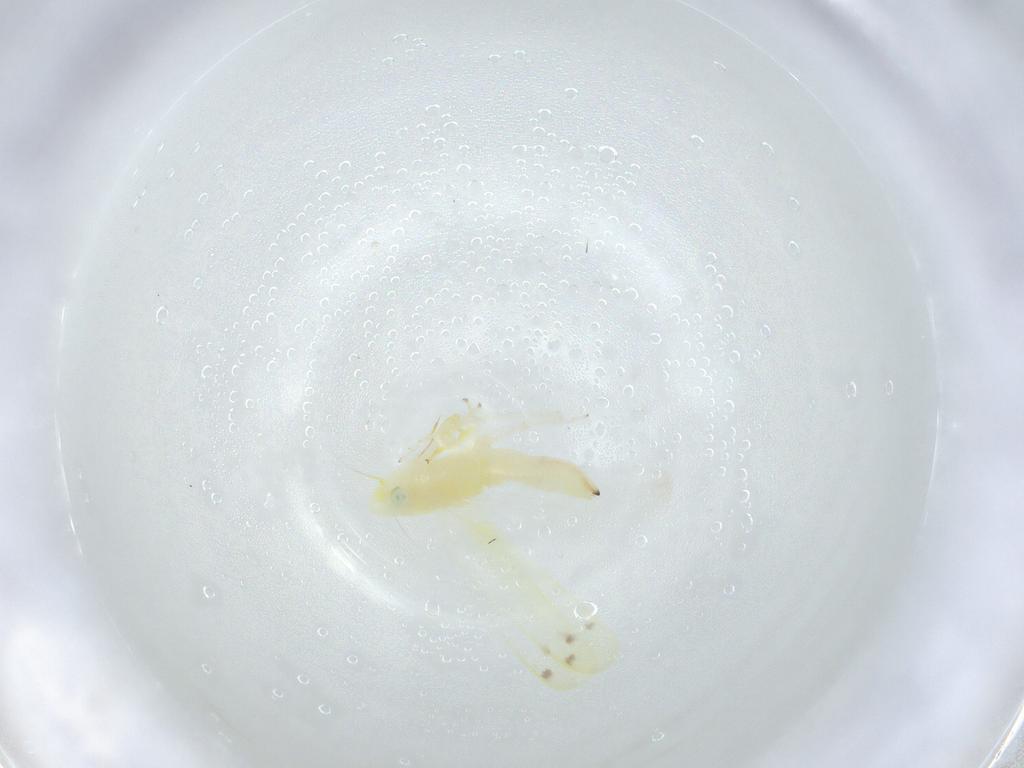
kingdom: Animalia
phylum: Arthropoda
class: Insecta
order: Hemiptera
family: Cicadellidae
